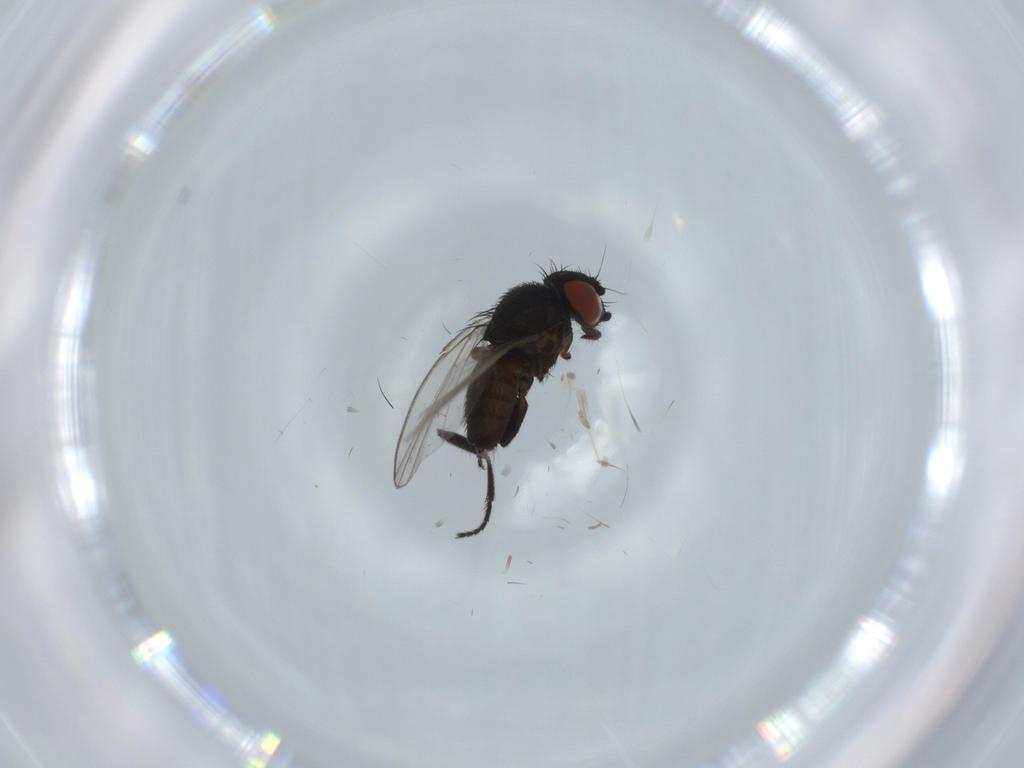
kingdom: Animalia
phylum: Arthropoda
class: Insecta
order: Diptera
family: Cecidomyiidae
